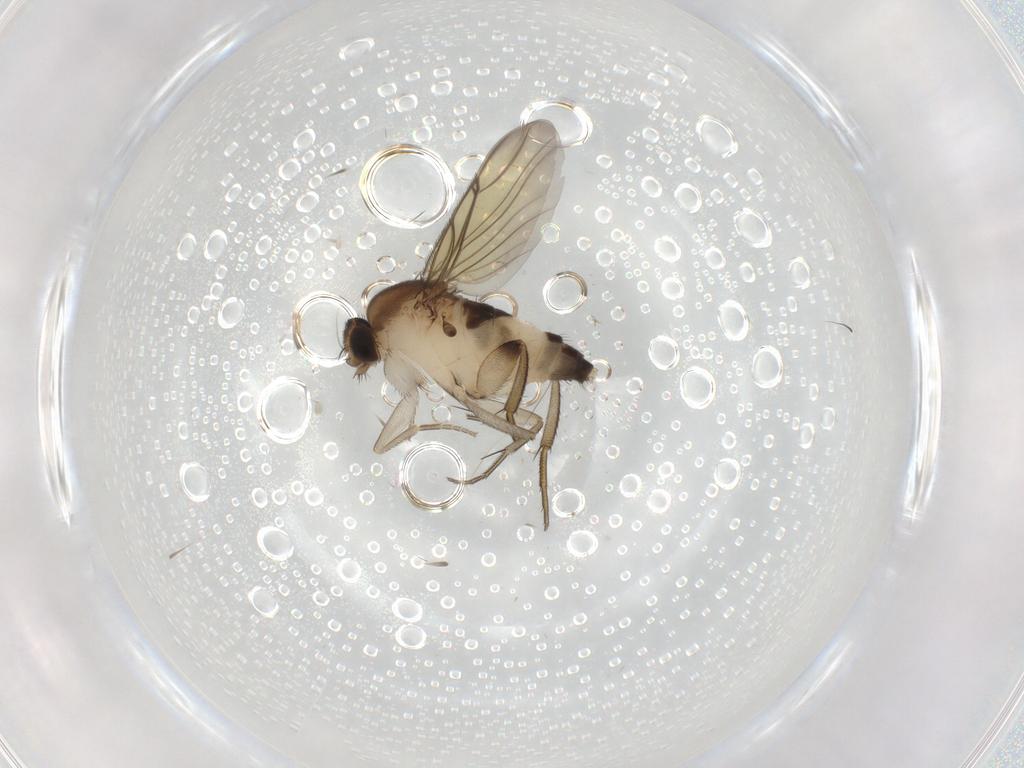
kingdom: Animalia
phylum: Arthropoda
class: Insecta
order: Diptera
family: Phoridae
